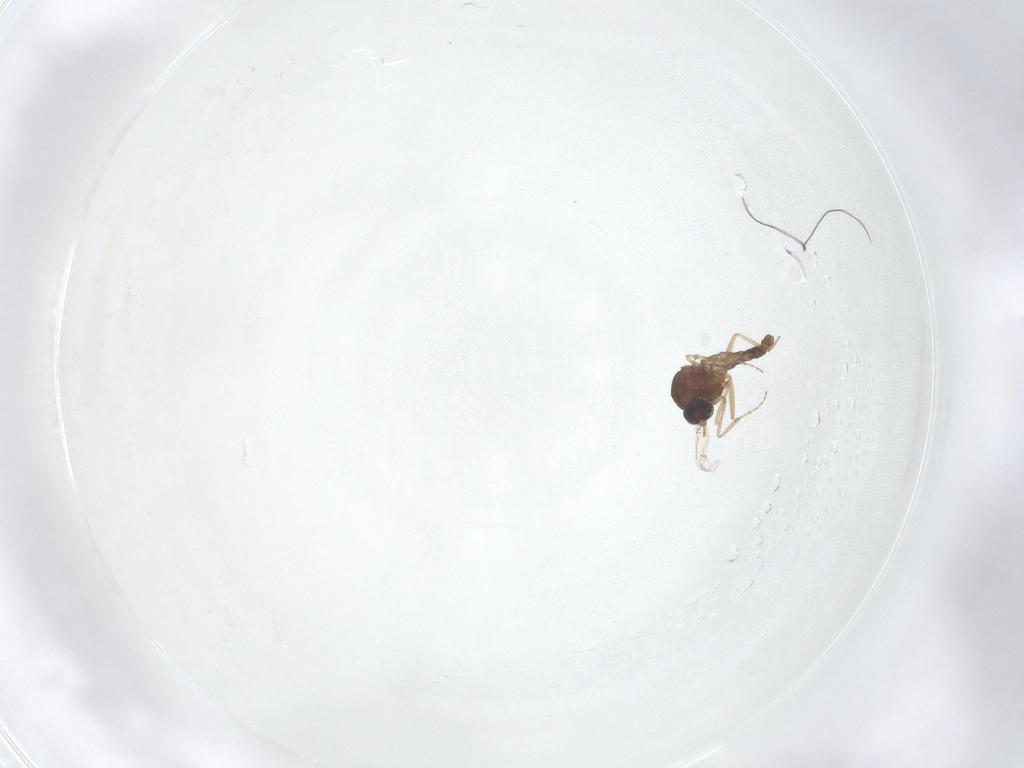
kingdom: Animalia
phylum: Arthropoda
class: Insecta
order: Diptera
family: Ceratopogonidae
